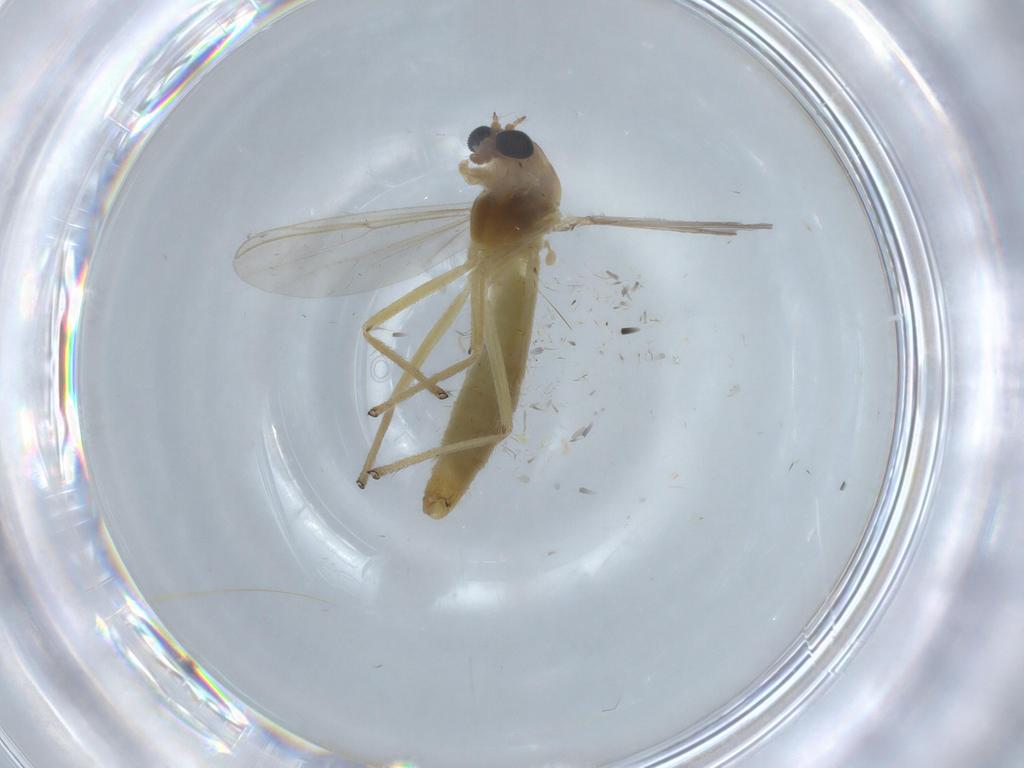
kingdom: Animalia
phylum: Arthropoda
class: Insecta
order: Diptera
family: Chironomidae
